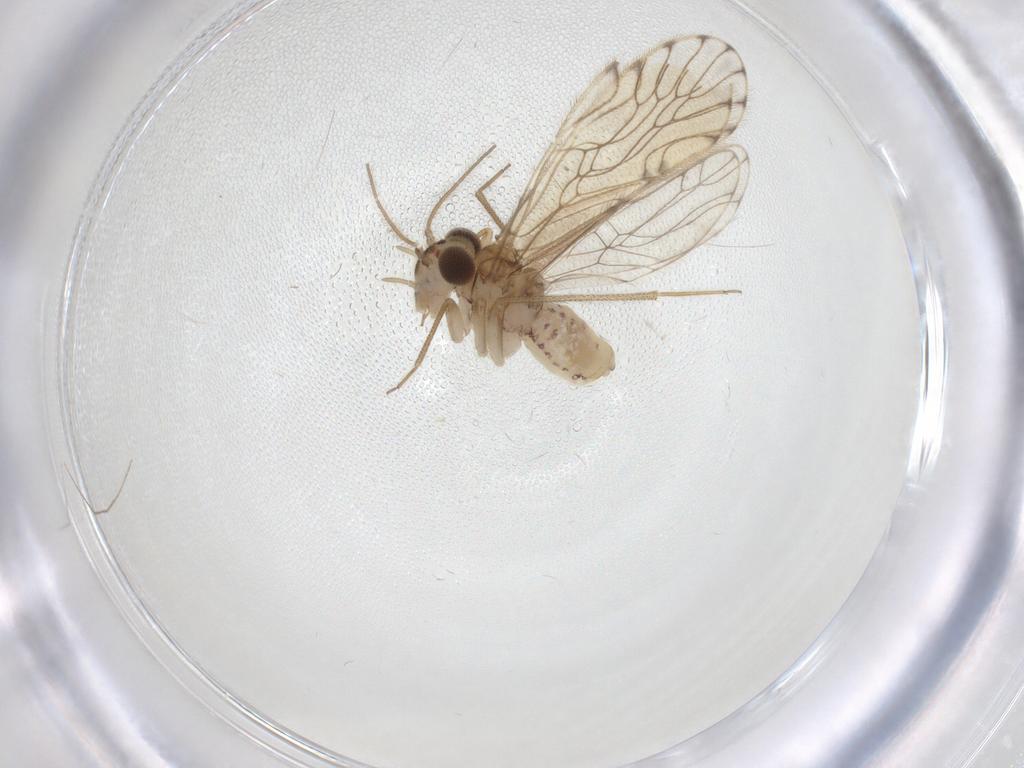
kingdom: Animalia
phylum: Arthropoda
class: Insecta
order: Psocodea
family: Epipsocidae
